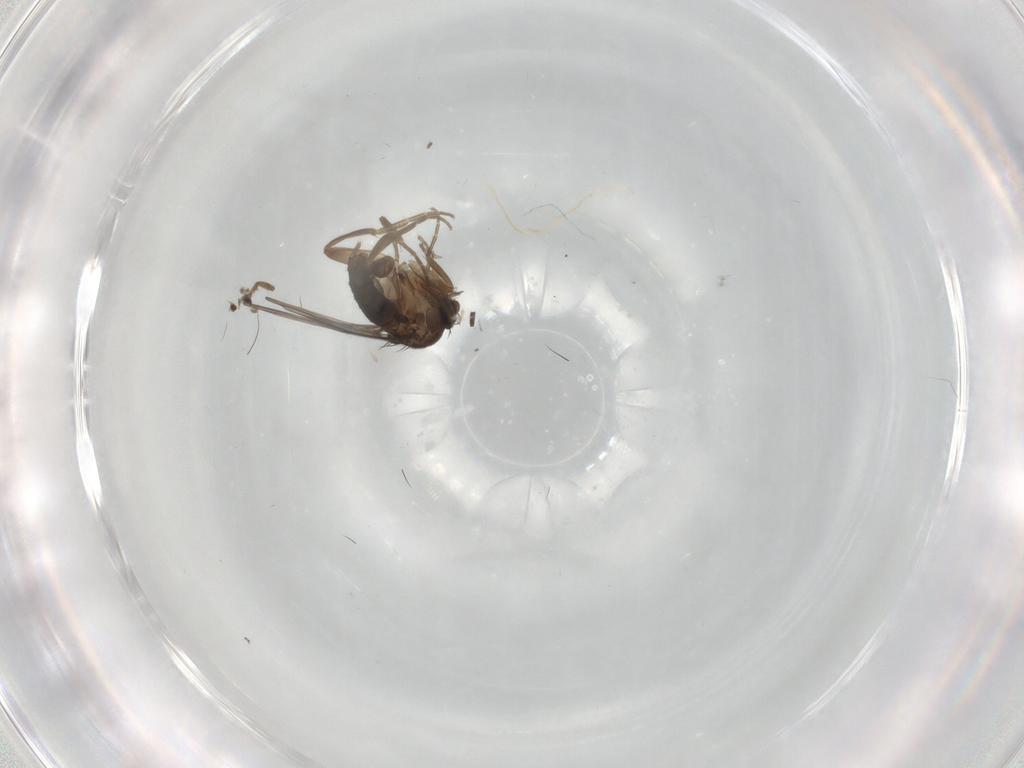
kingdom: Animalia
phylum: Arthropoda
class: Insecta
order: Diptera
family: Phoridae
